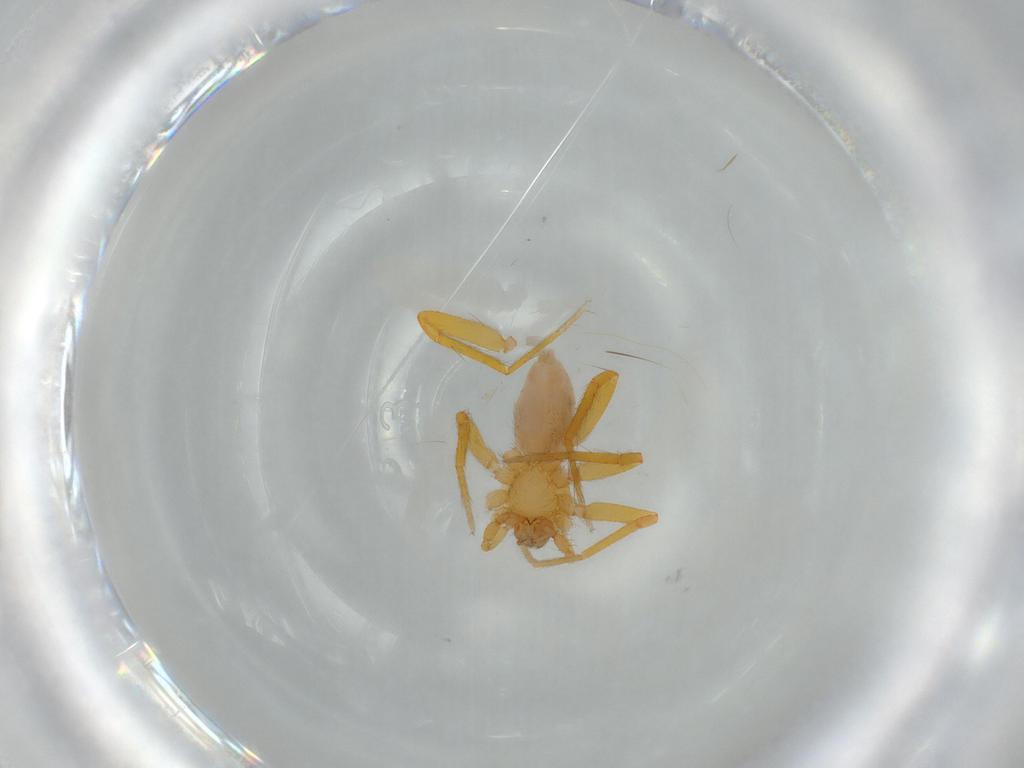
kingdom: Animalia
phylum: Arthropoda
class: Arachnida
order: Araneae
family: Oonopidae
